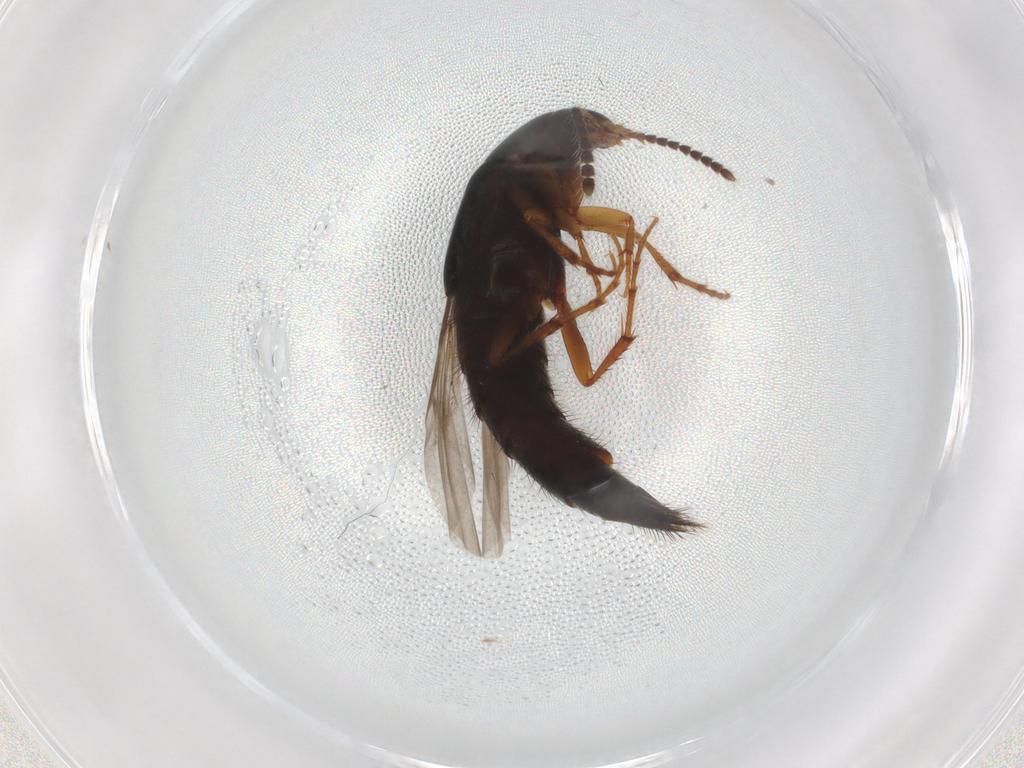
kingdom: Animalia
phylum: Arthropoda
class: Insecta
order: Coleoptera
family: Staphylinidae
